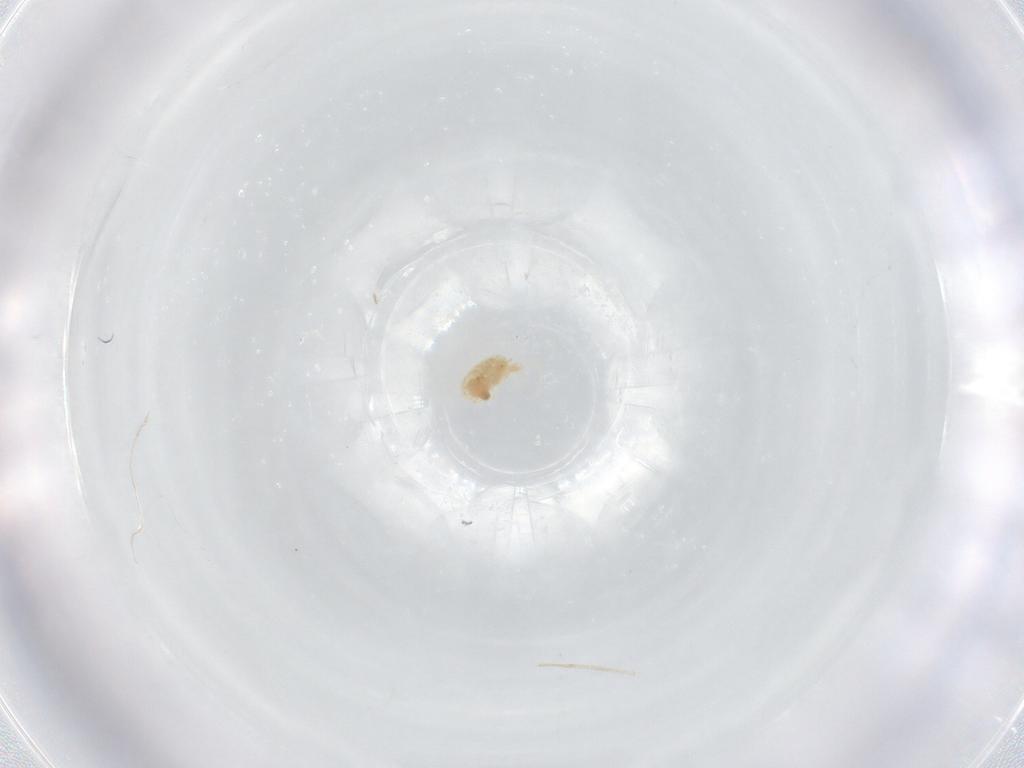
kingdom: Animalia
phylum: Arthropoda
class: Arachnida
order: Trombidiformes
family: Eupodidae
